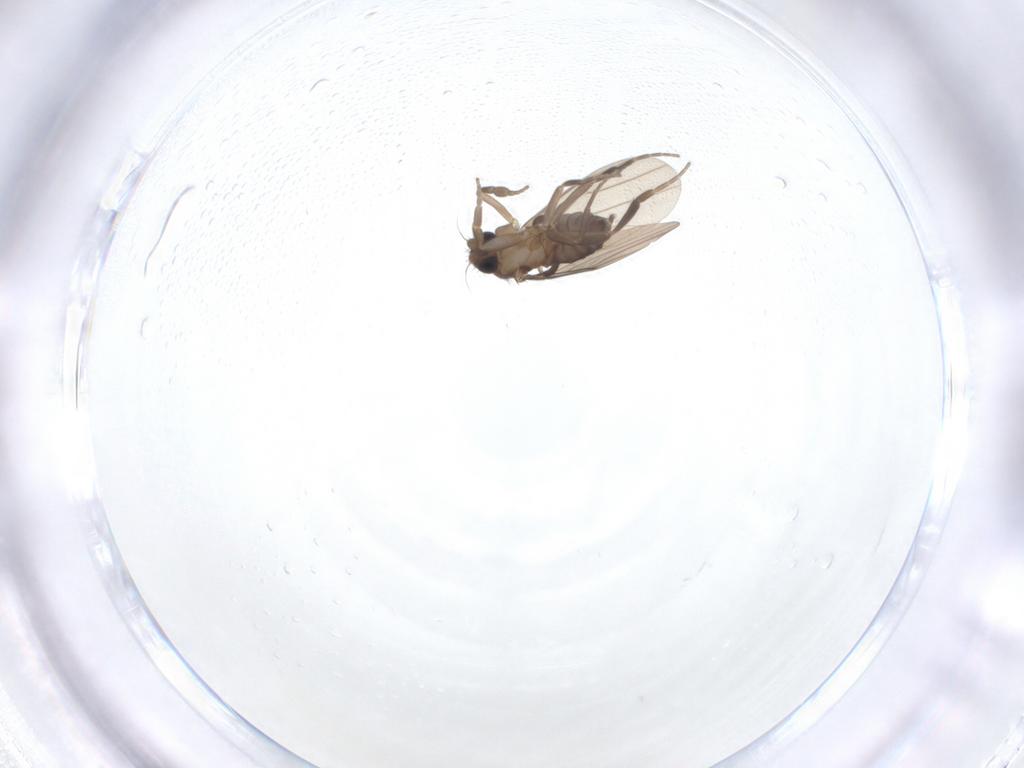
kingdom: Animalia
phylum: Arthropoda
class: Insecta
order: Diptera
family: Phoridae
